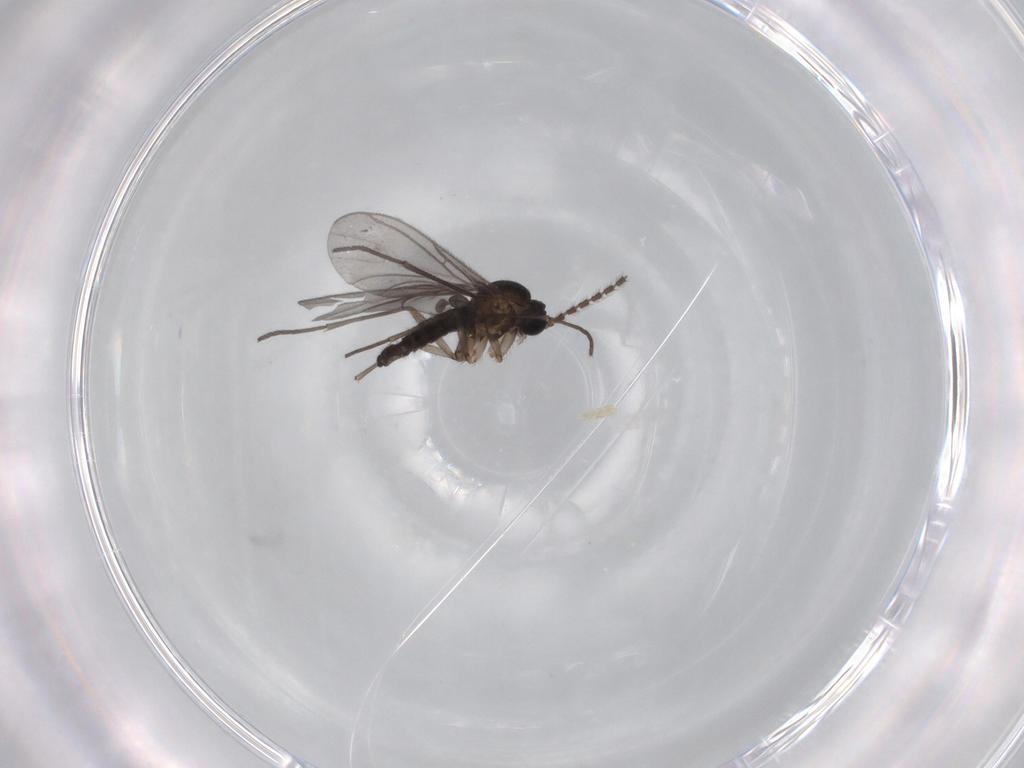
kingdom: Animalia
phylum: Arthropoda
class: Insecta
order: Diptera
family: Sciaridae
